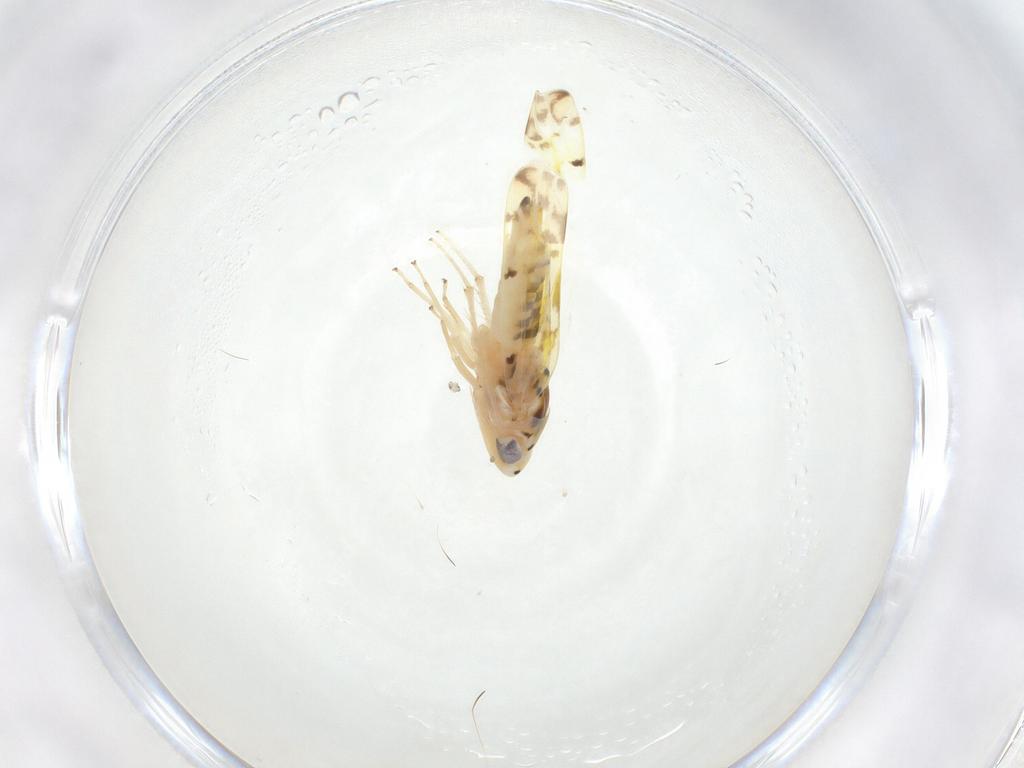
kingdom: Animalia
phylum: Arthropoda
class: Insecta
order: Hemiptera
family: Cicadellidae
